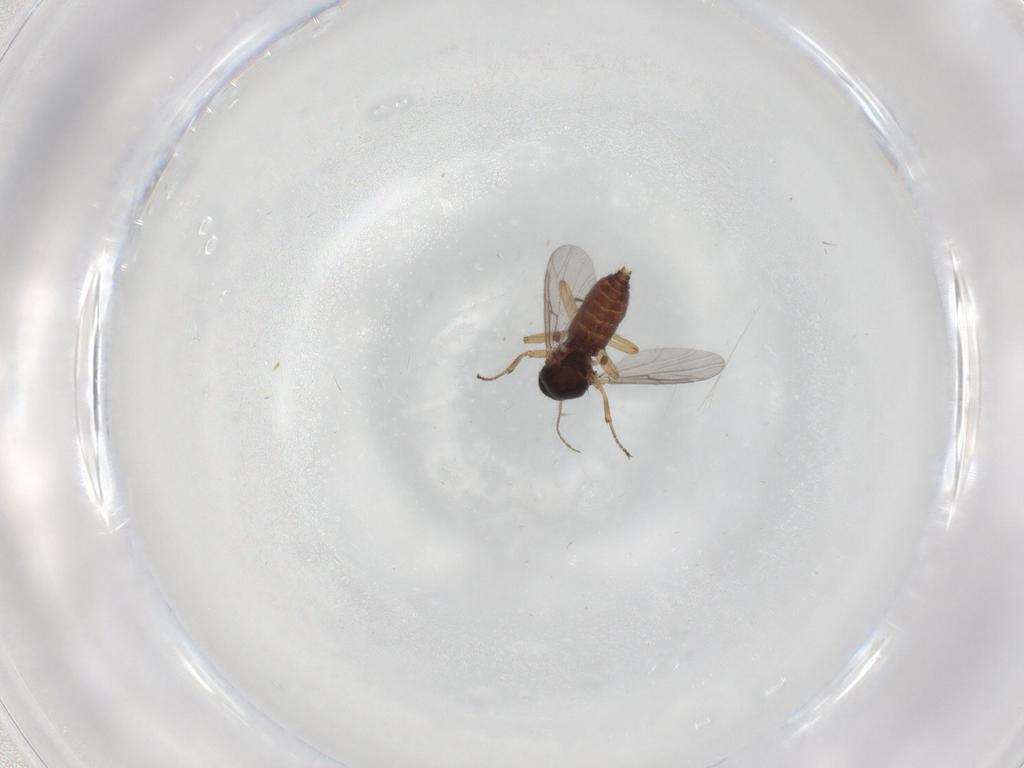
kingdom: Animalia
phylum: Arthropoda
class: Insecta
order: Diptera
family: Ceratopogonidae
